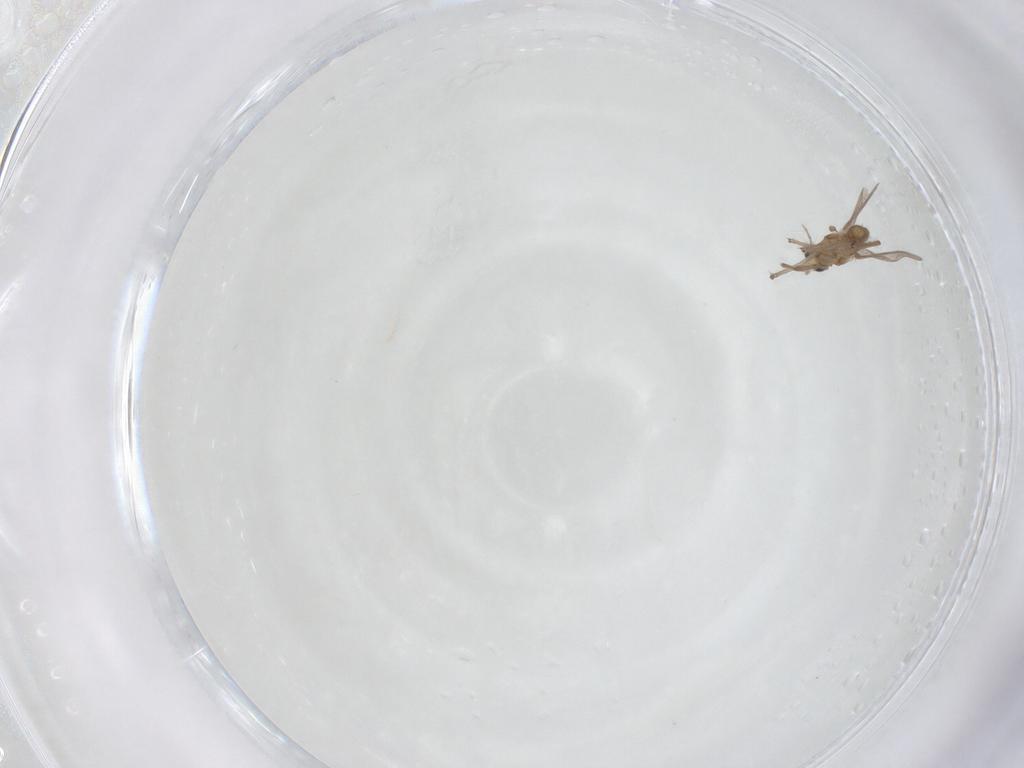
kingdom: Animalia
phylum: Arthropoda
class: Insecta
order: Diptera
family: Chironomidae
